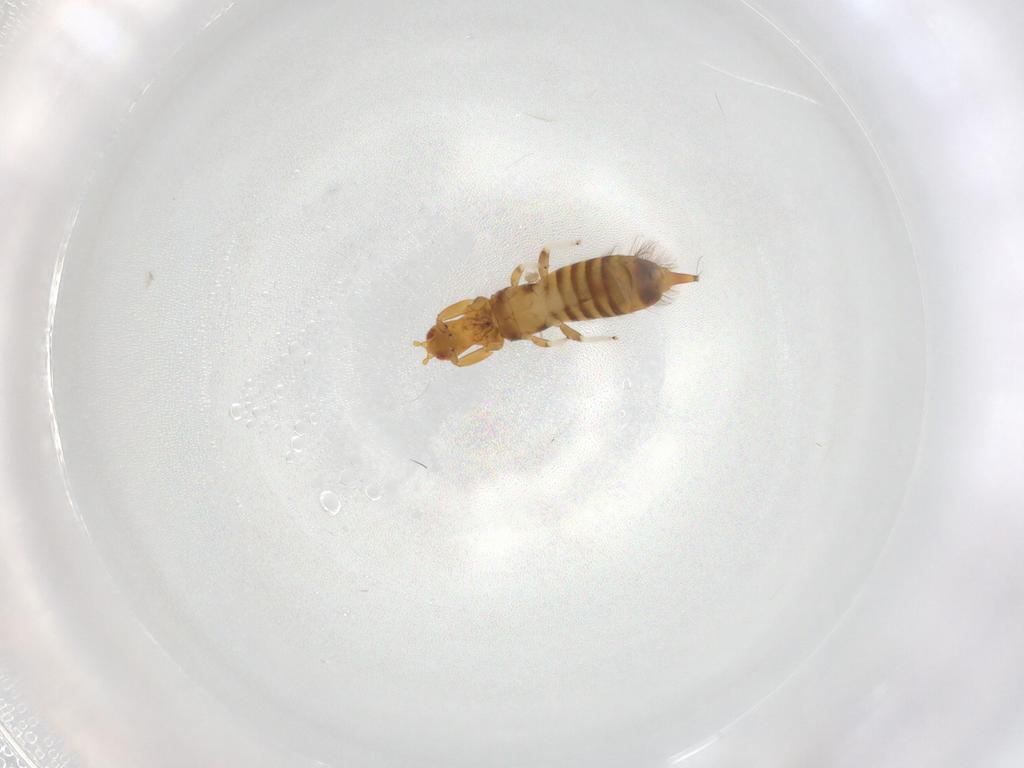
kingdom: Animalia
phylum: Arthropoda
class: Insecta
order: Thysanoptera
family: Phlaeothripidae
